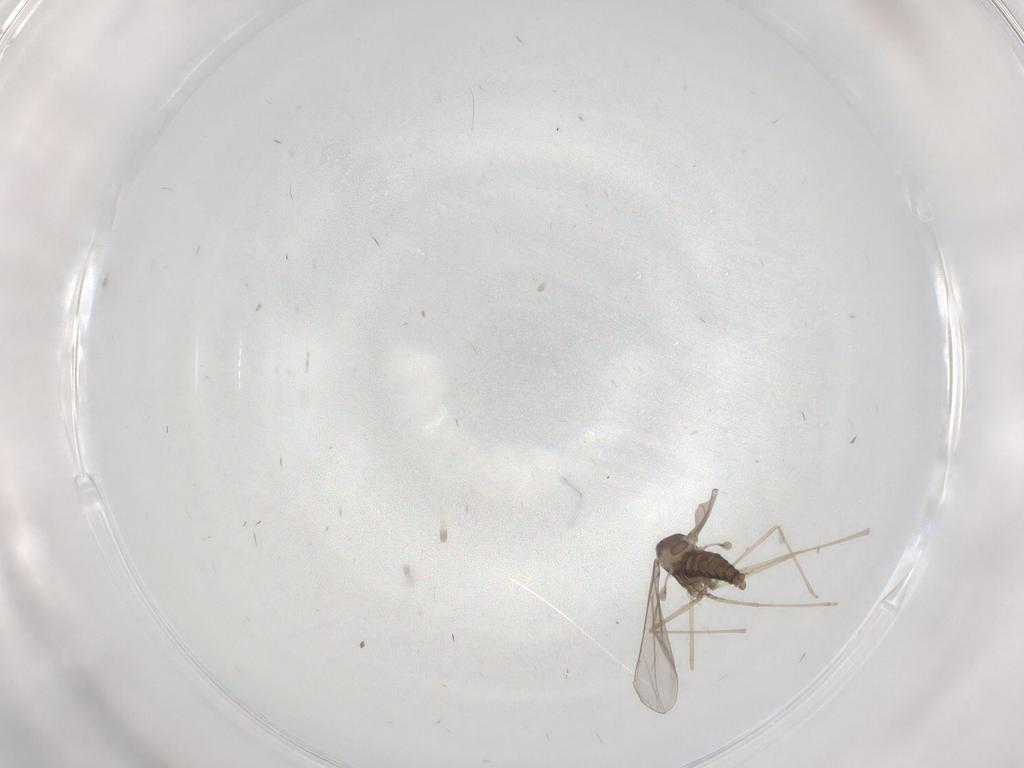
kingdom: Animalia
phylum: Arthropoda
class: Insecta
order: Diptera
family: Cecidomyiidae
